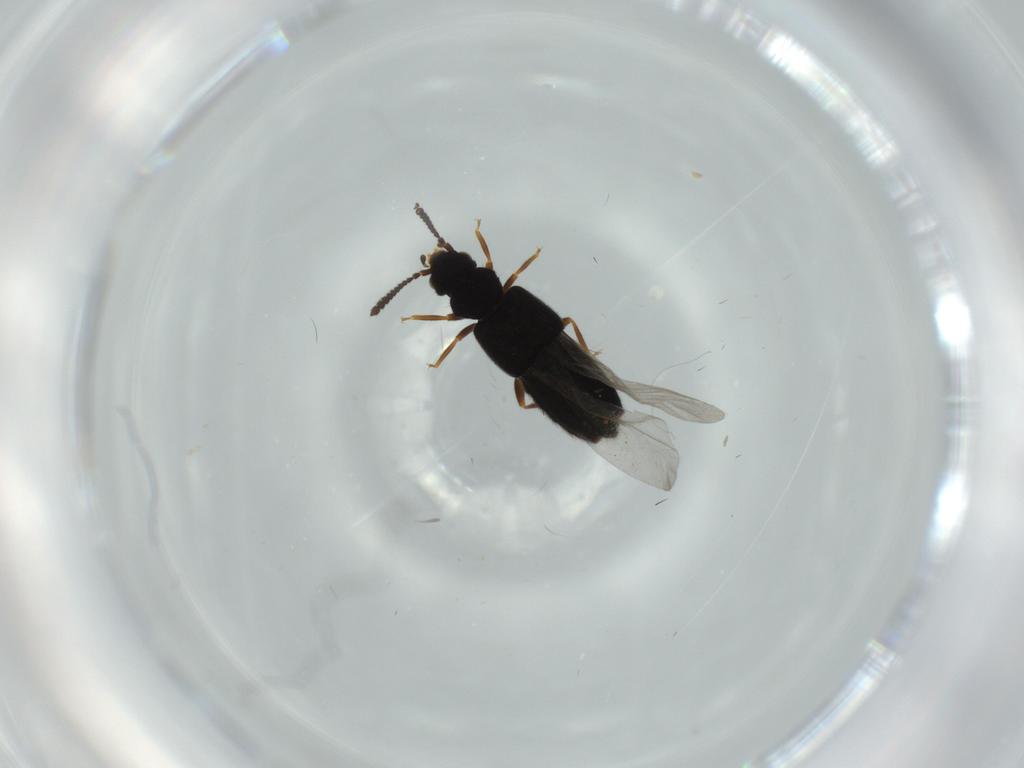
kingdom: Animalia
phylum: Arthropoda
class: Insecta
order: Coleoptera
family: Staphylinidae
